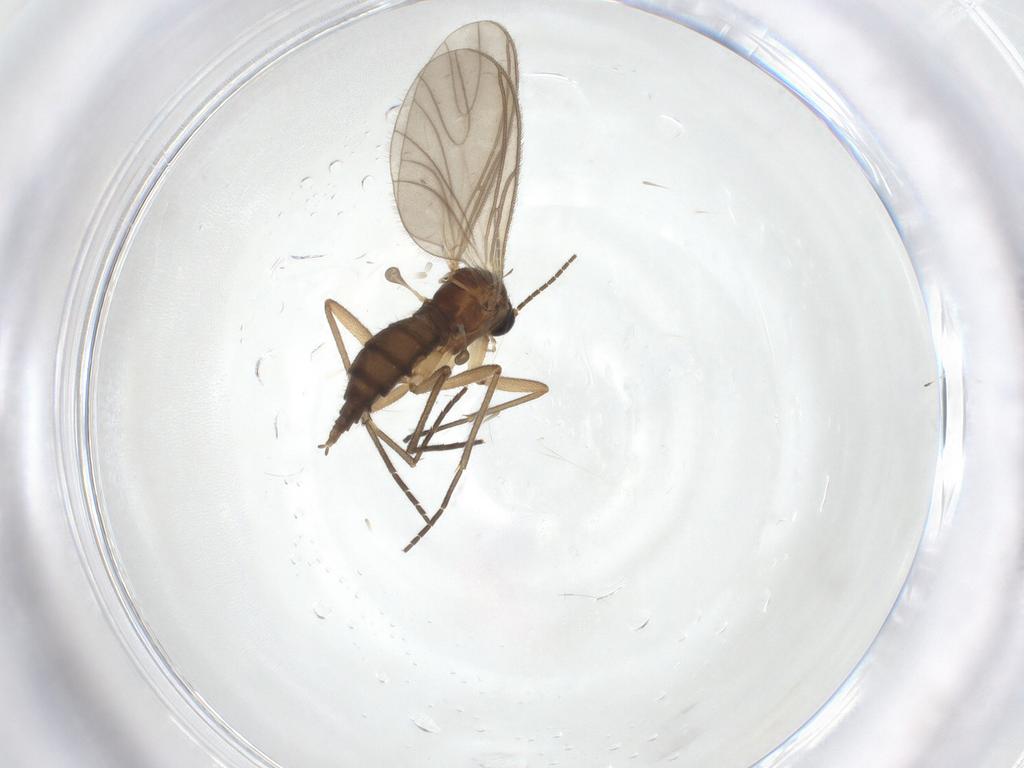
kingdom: Animalia
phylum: Arthropoda
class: Insecta
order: Diptera
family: Sciaridae
